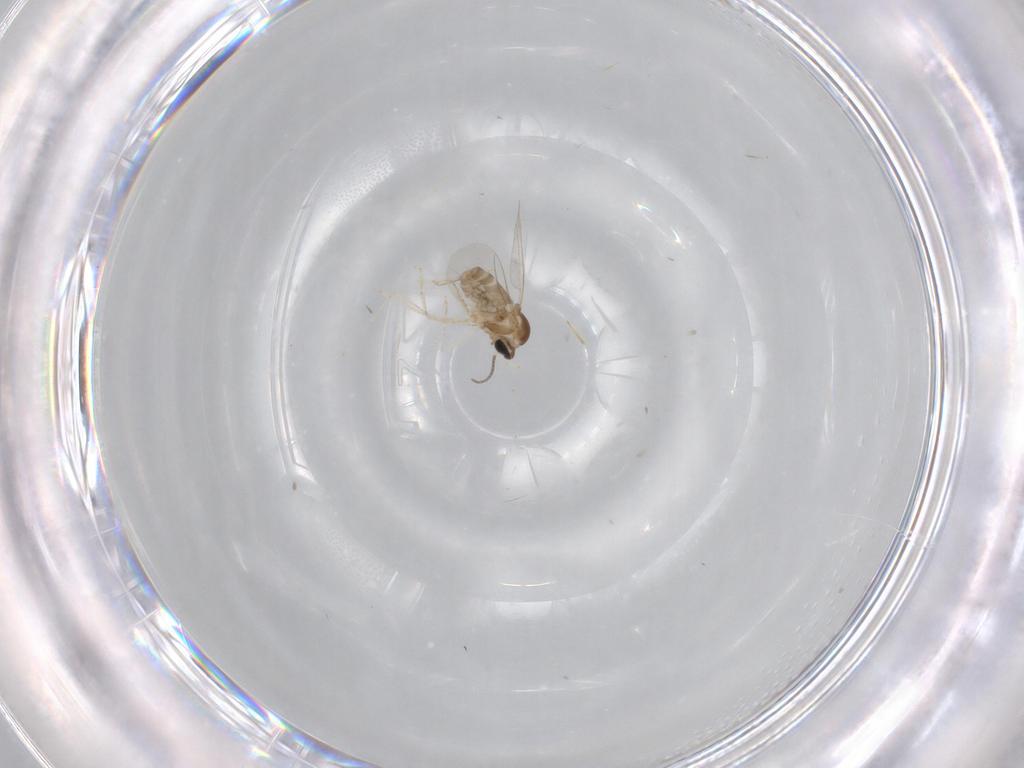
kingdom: Animalia
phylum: Arthropoda
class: Insecta
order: Diptera
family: Cecidomyiidae
